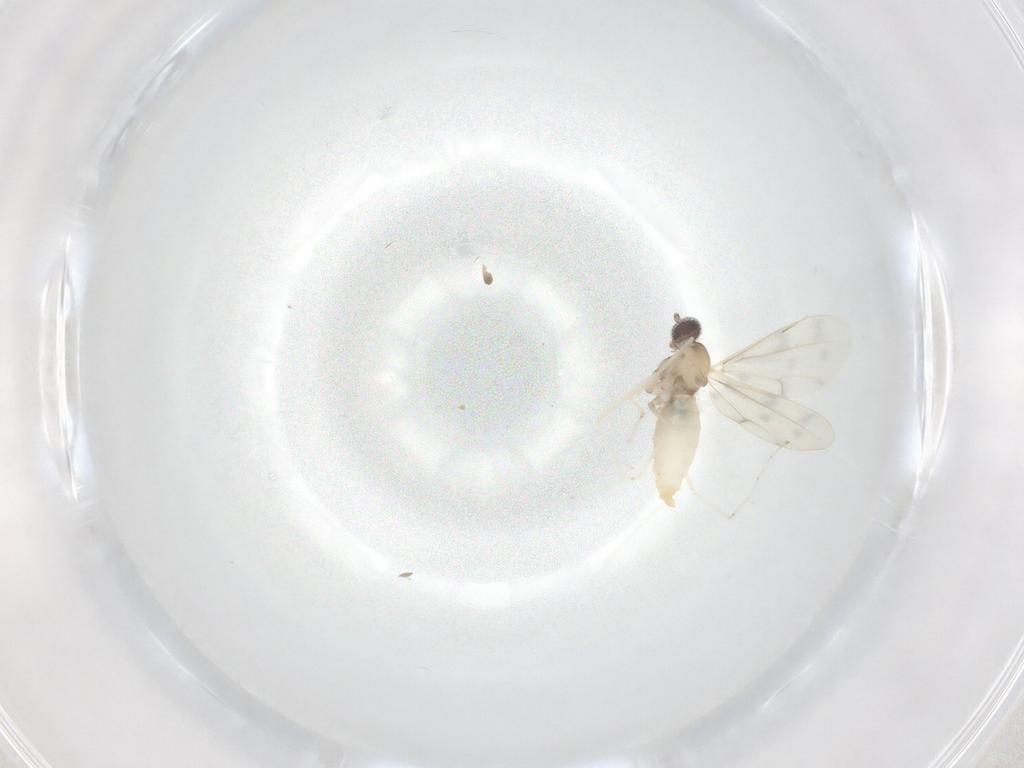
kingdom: Animalia
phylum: Arthropoda
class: Insecta
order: Diptera
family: Cecidomyiidae
